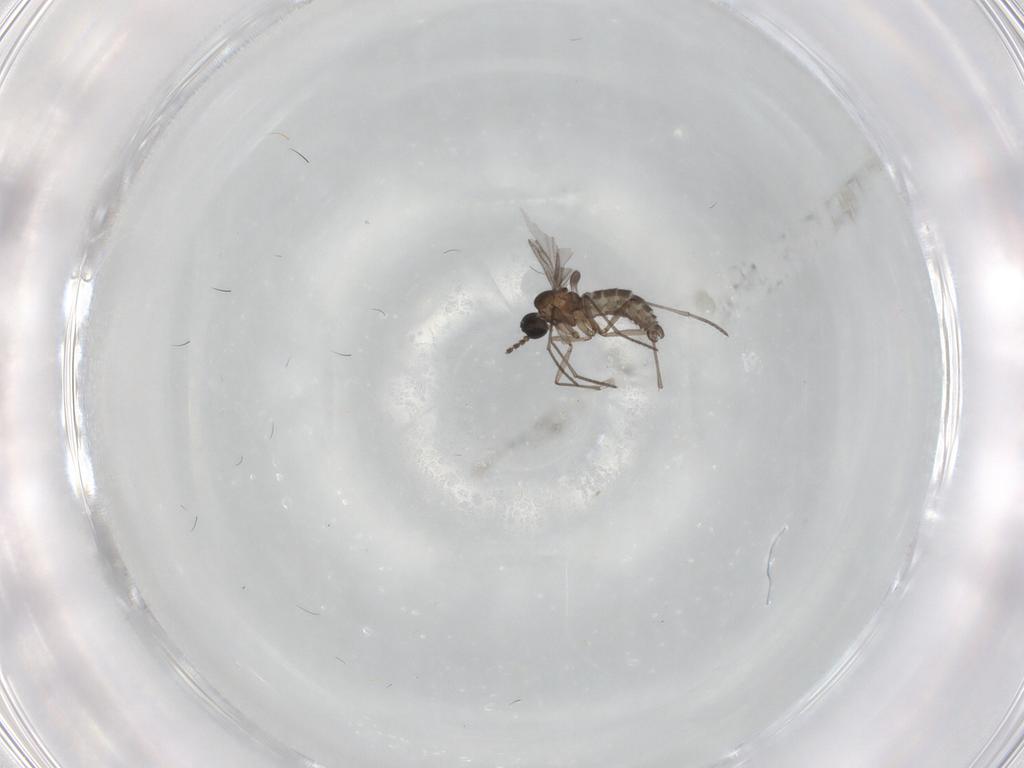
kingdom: Animalia
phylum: Arthropoda
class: Insecta
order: Diptera
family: Sciaridae
